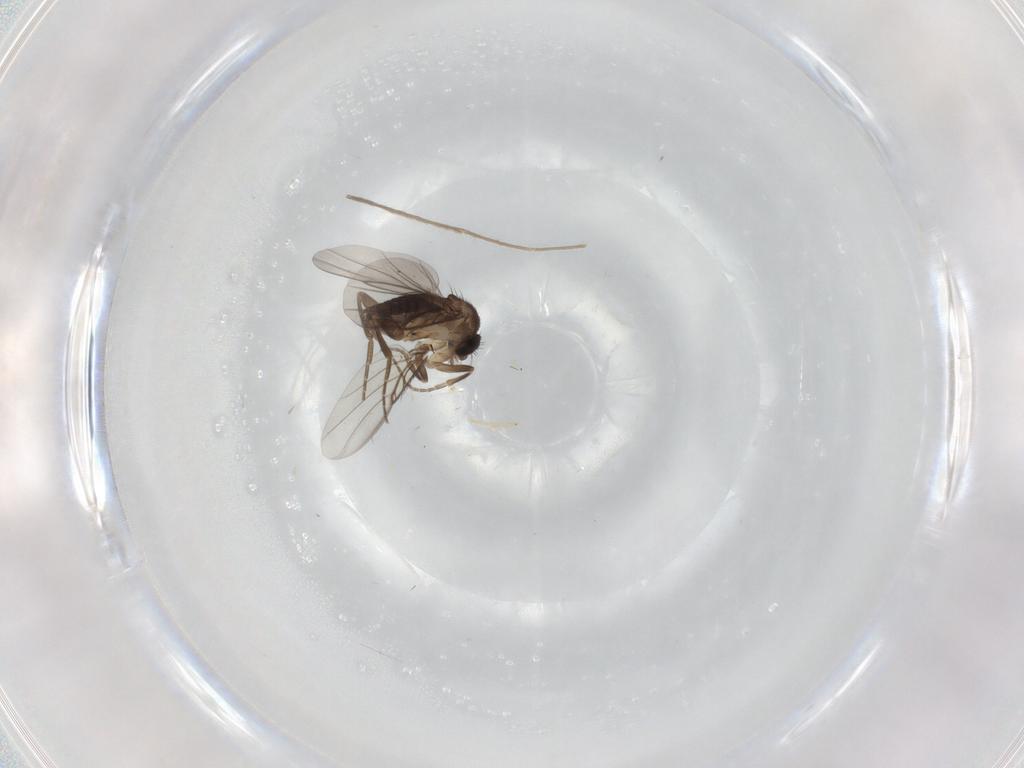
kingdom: Animalia
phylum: Arthropoda
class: Insecta
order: Diptera
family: Chironomidae
